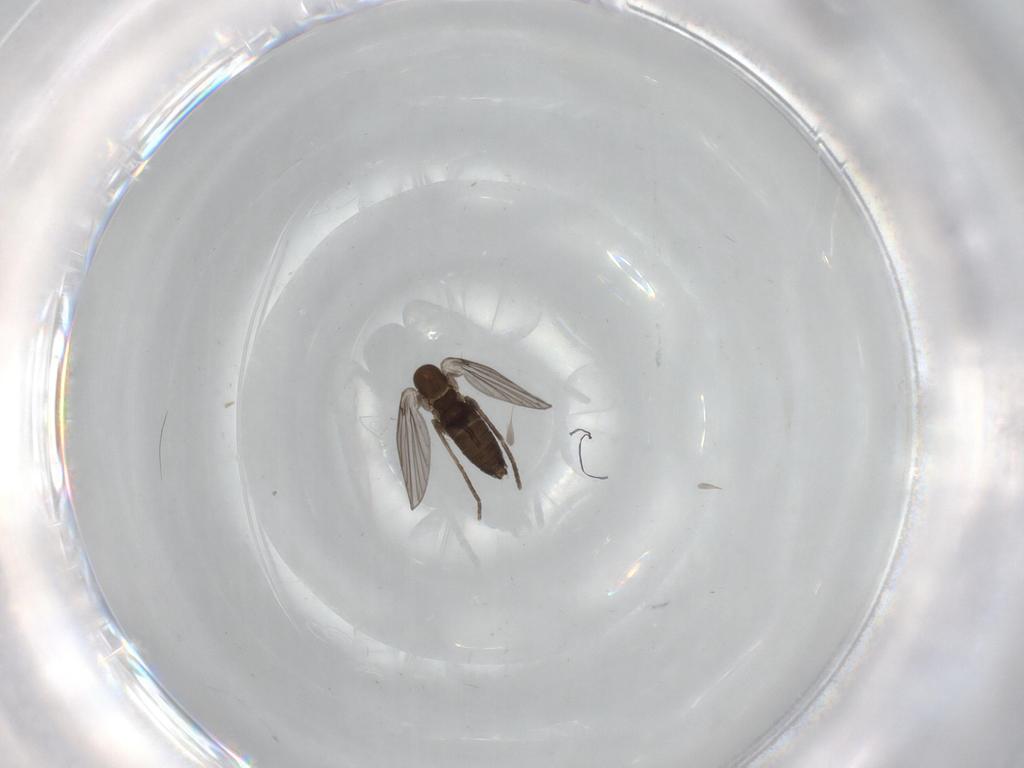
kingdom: Animalia
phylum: Arthropoda
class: Insecta
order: Diptera
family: Psychodidae
